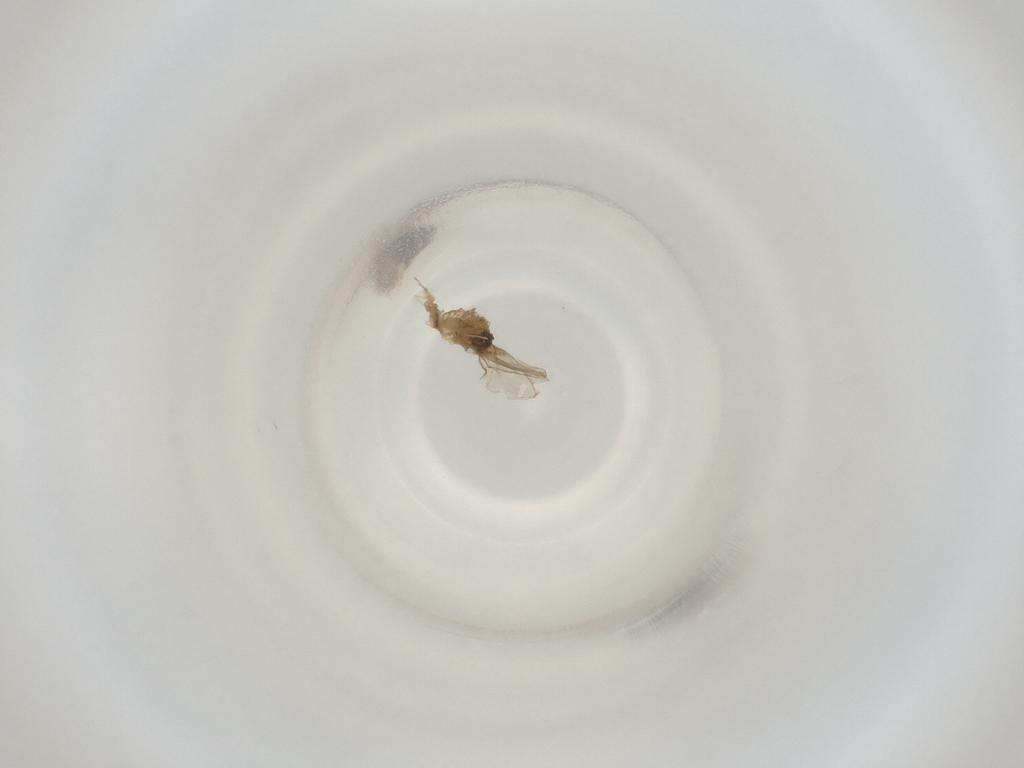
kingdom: Animalia
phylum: Arthropoda
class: Insecta
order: Diptera
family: Cecidomyiidae
